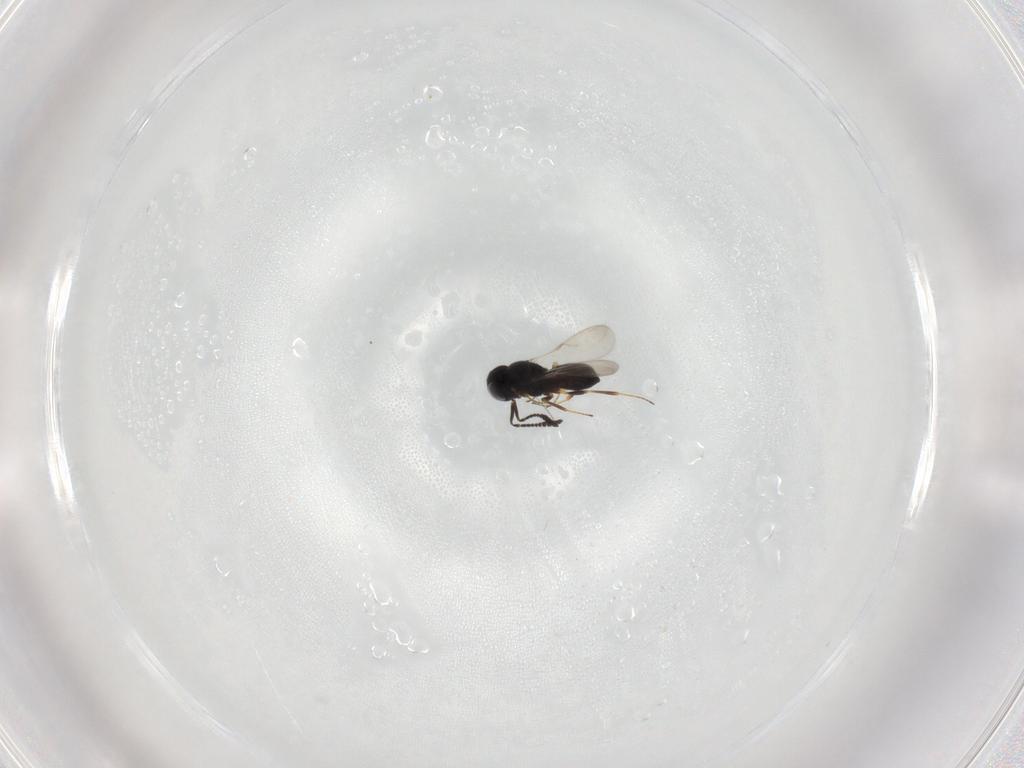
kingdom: Animalia
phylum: Arthropoda
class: Insecta
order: Hymenoptera
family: Scelionidae
